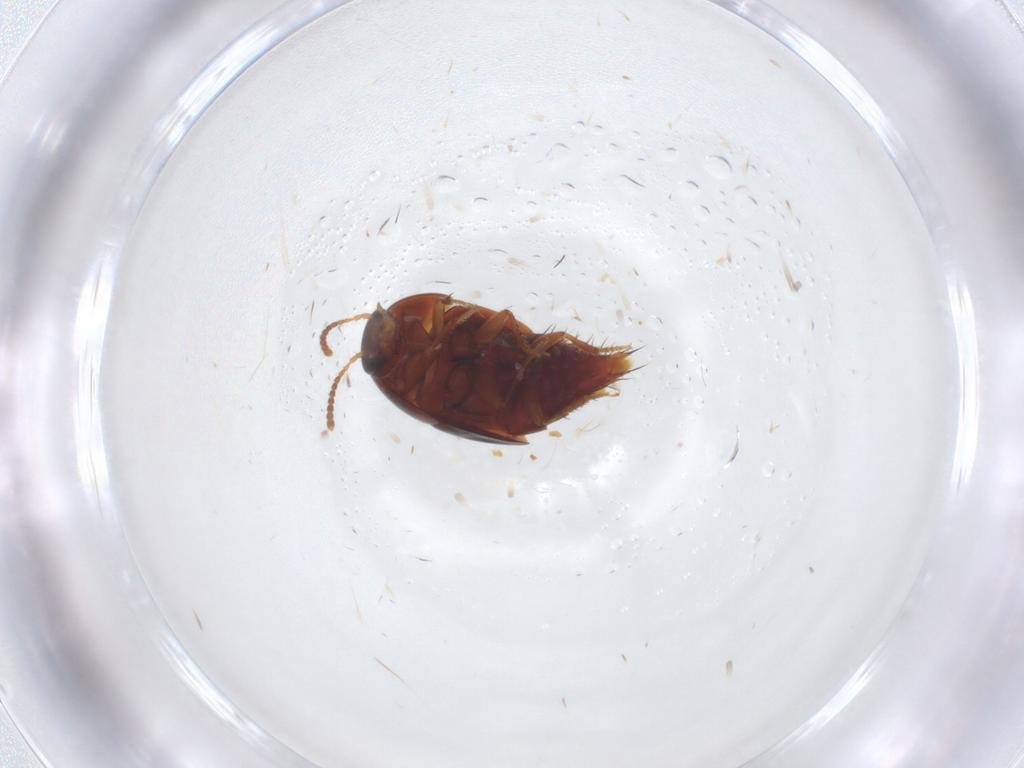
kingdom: Animalia
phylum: Arthropoda
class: Insecta
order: Coleoptera
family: Staphylinidae
